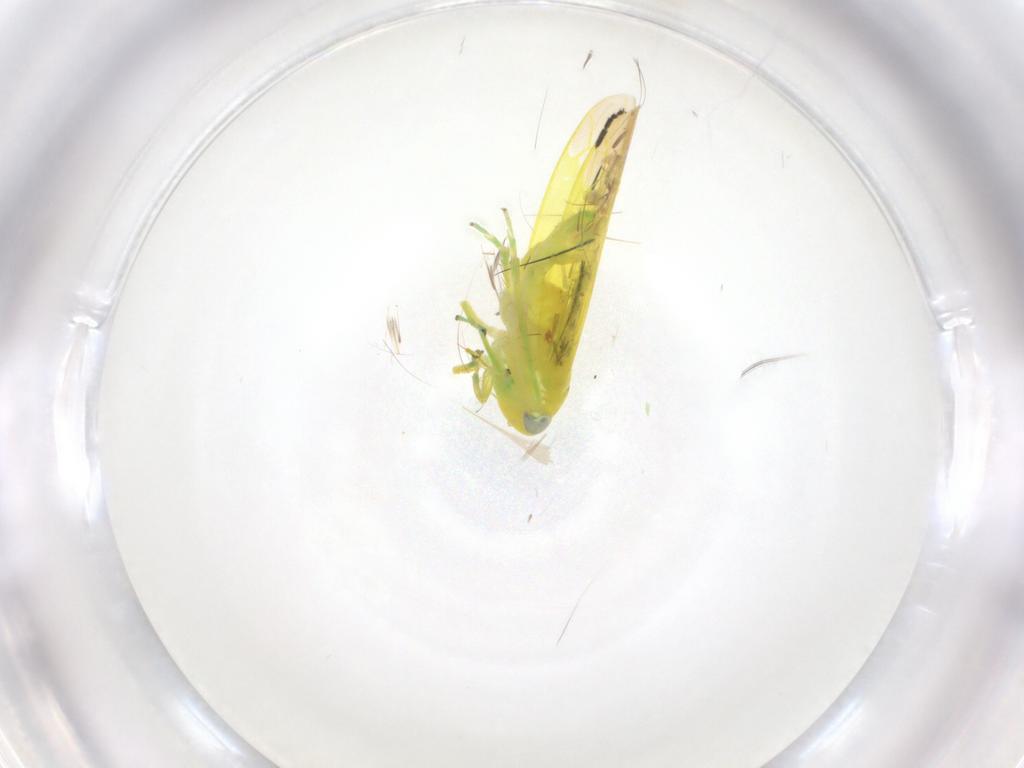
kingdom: Animalia
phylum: Arthropoda
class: Insecta
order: Hemiptera
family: Cicadellidae
